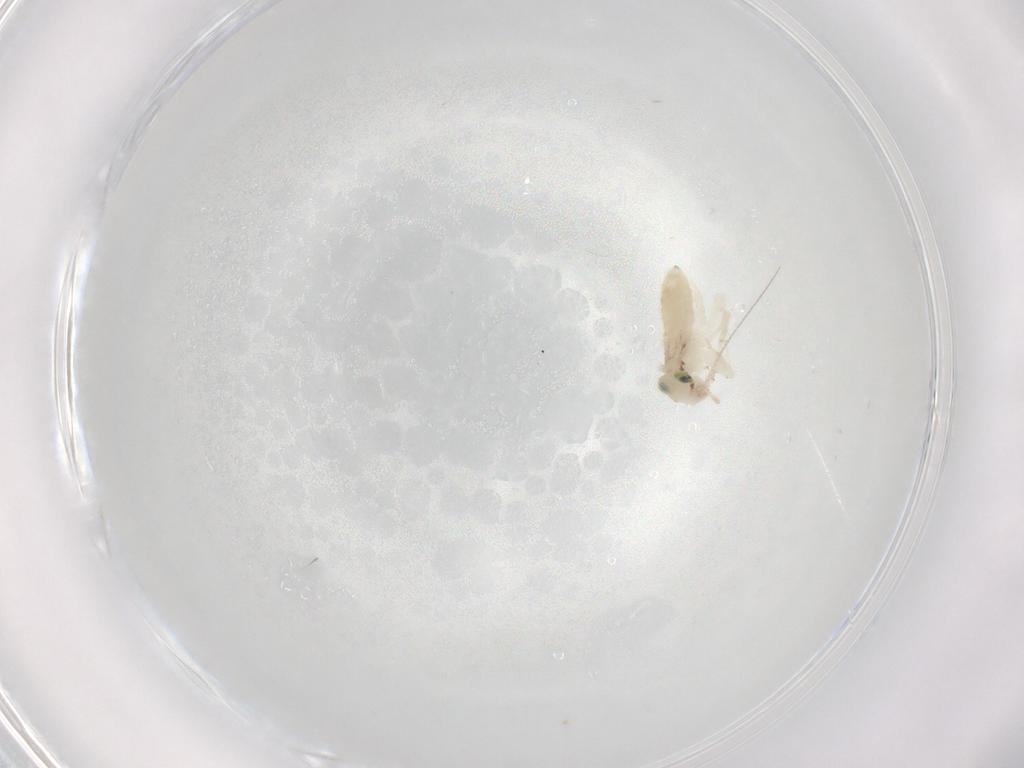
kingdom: Animalia
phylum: Arthropoda
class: Insecta
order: Psocodea
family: Lepidopsocidae
